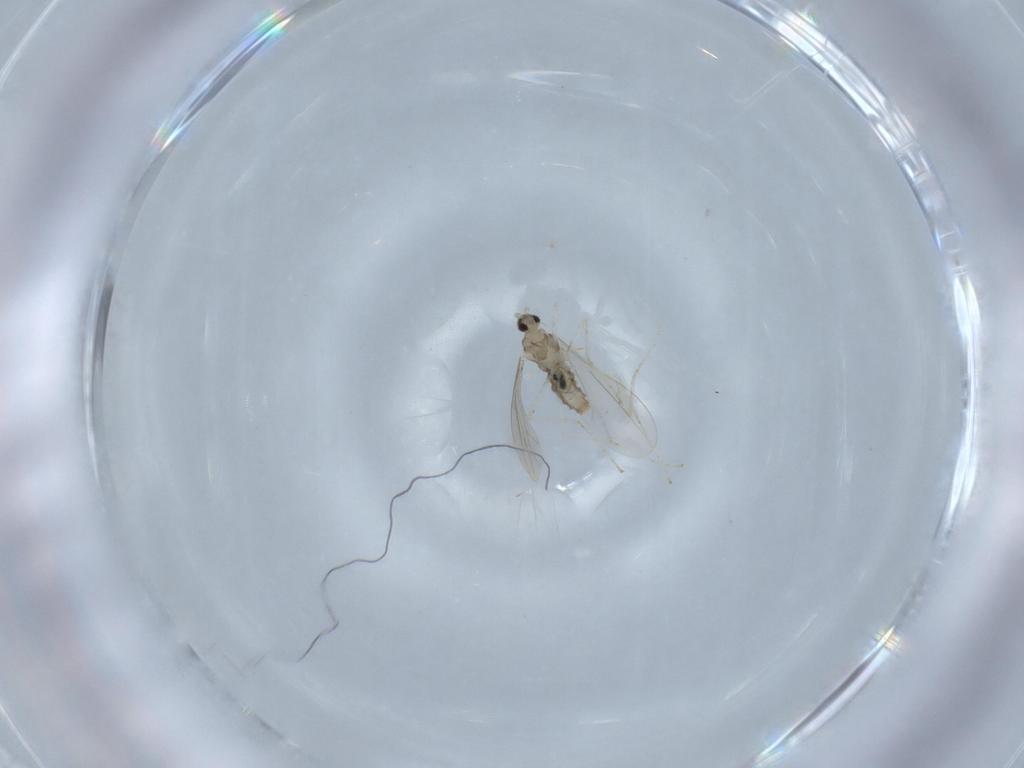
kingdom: Animalia
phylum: Arthropoda
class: Insecta
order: Diptera
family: Cecidomyiidae
